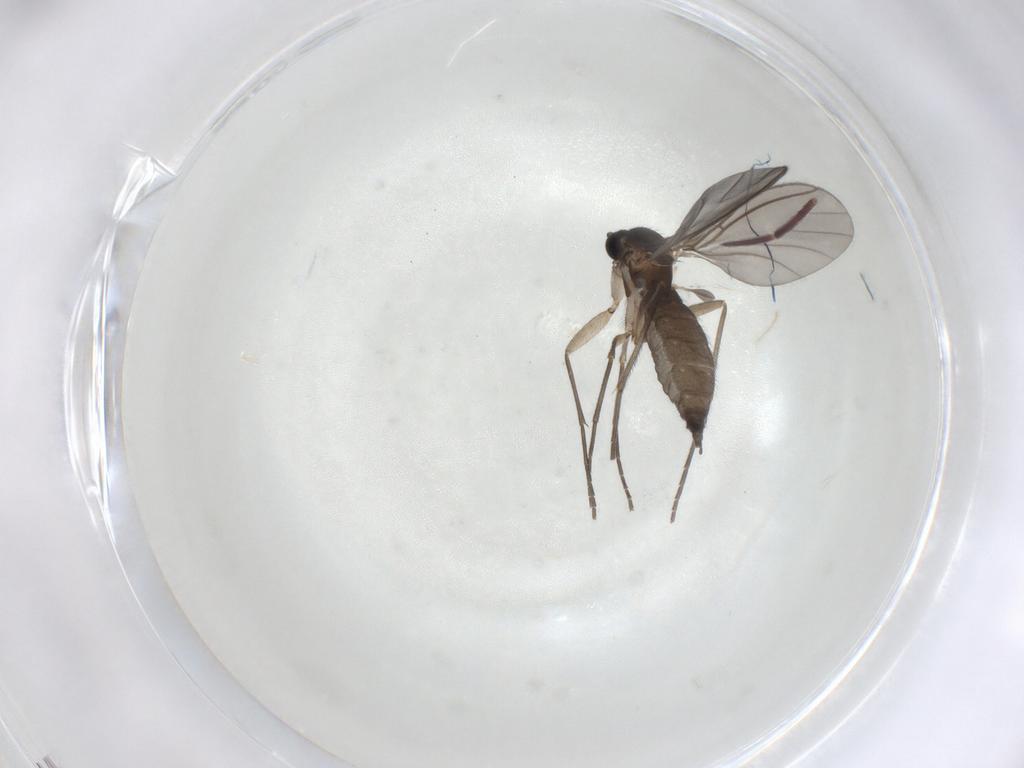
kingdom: Animalia
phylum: Arthropoda
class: Insecta
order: Diptera
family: Sciaridae
